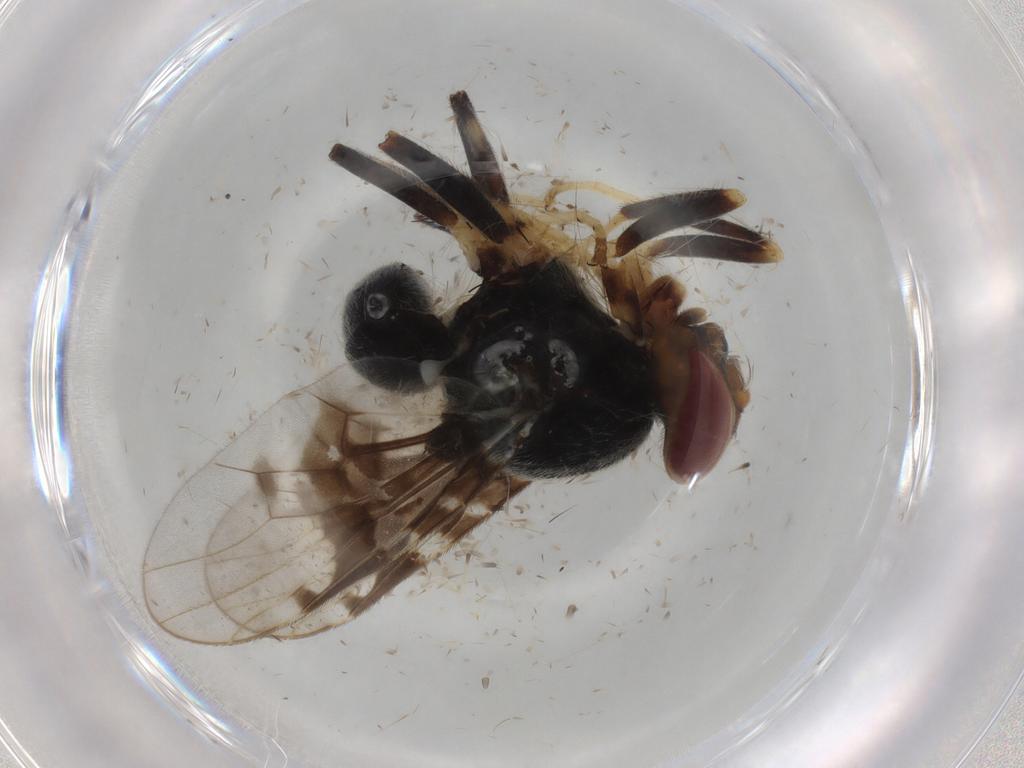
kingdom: Animalia
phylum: Arthropoda
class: Insecta
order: Diptera
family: Platystomatidae
